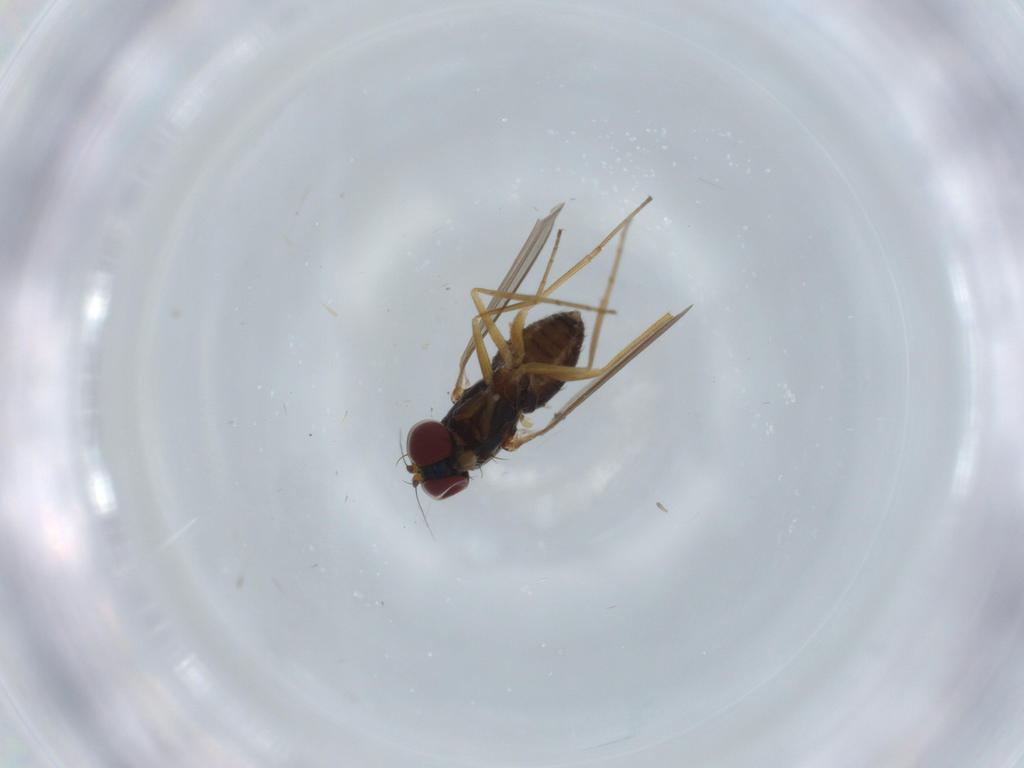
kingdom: Animalia
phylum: Arthropoda
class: Insecta
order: Diptera
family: Dolichopodidae
